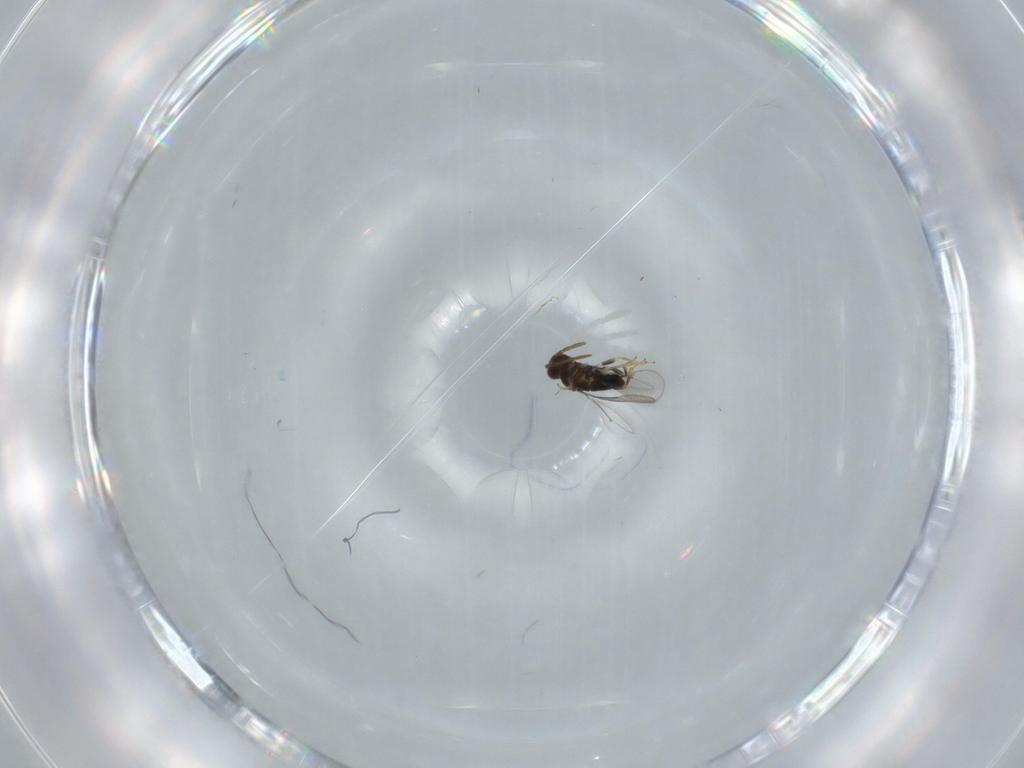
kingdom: Animalia
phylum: Arthropoda
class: Insecta
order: Hymenoptera
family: Aphelinidae
